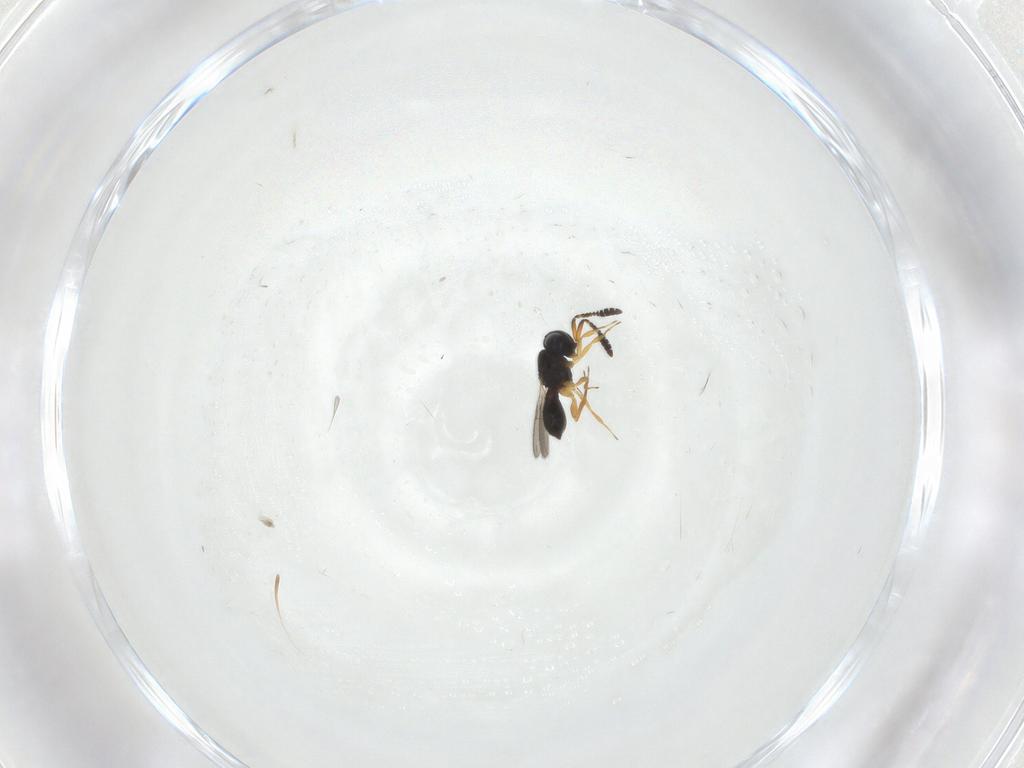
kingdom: Animalia
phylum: Arthropoda
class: Insecta
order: Hymenoptera
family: Scelionidae
